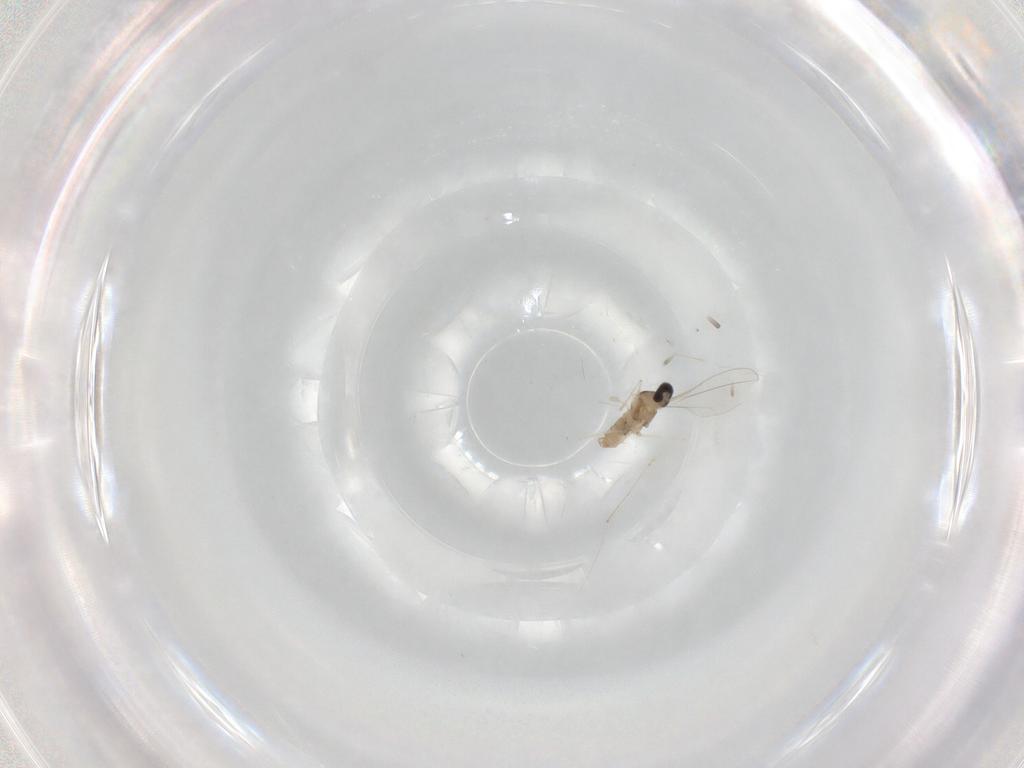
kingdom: Animalia
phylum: Arthropoda
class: Insecta
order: Diptera
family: Cecidomyiidae
